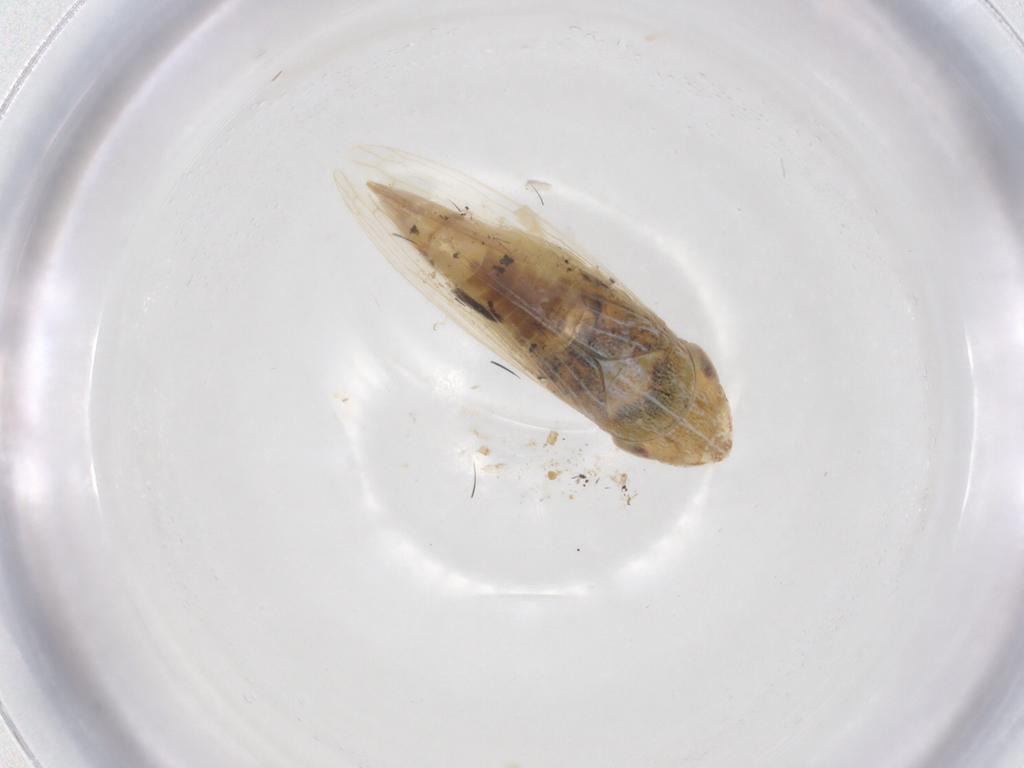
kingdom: Animalia
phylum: Arthropoda
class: Insecta
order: Hemiptera
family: Cicadellidae
